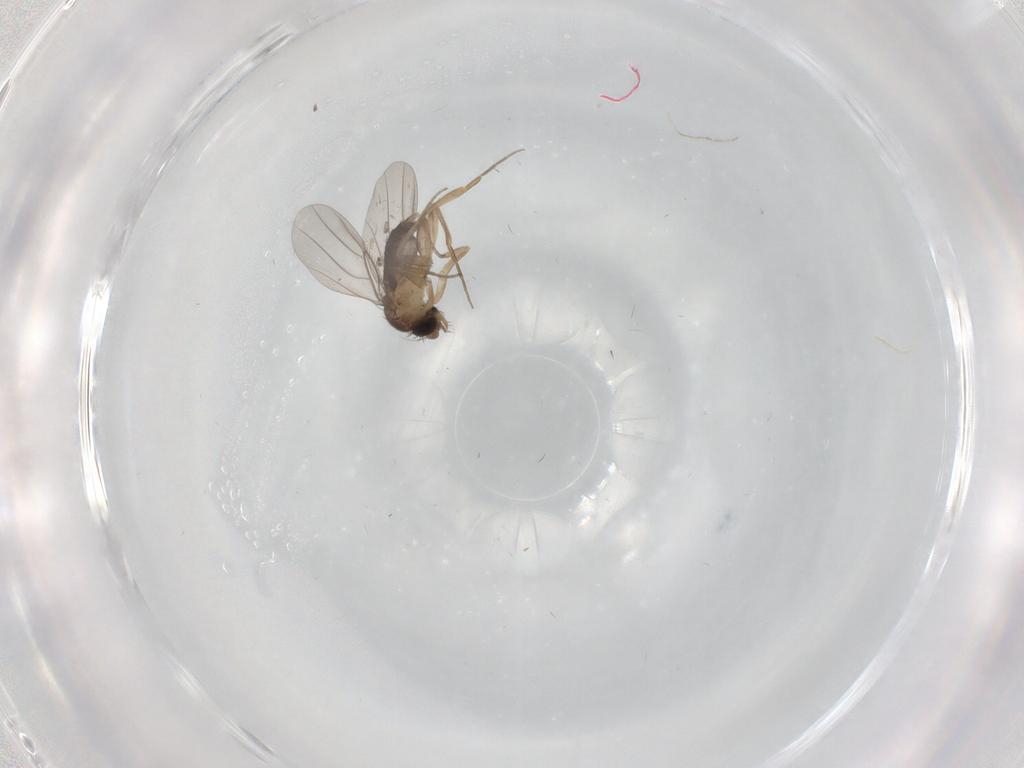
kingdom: Animalia
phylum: Arthropoda
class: Insecta
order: Diptera
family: Phoridae
